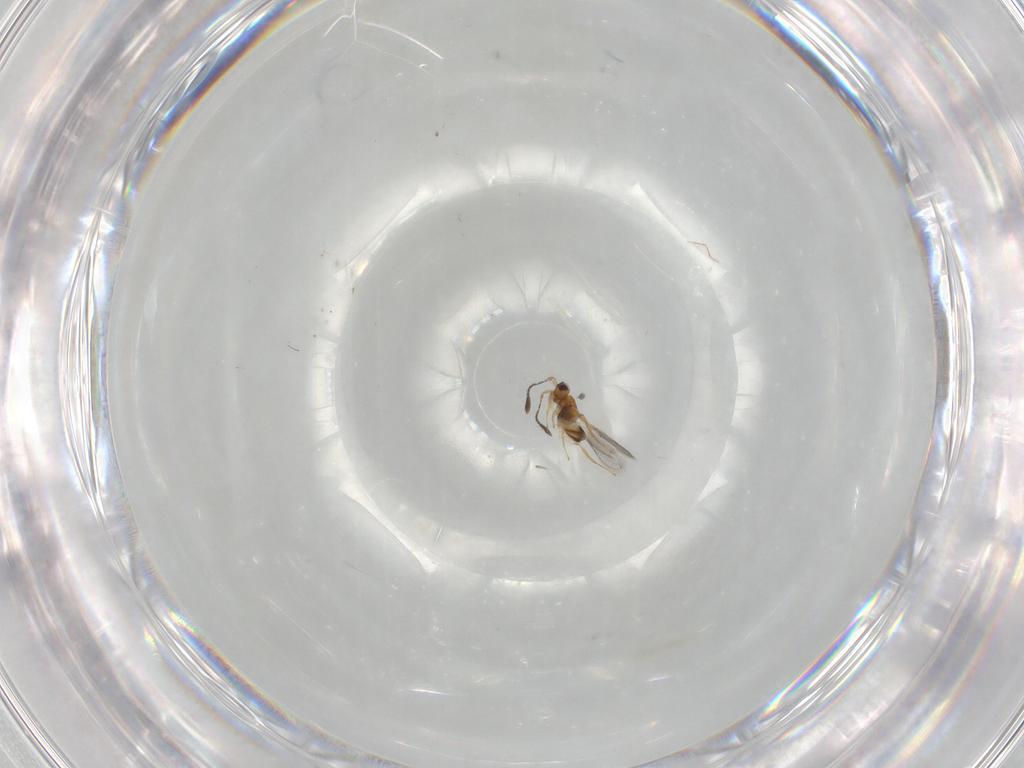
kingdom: Animalia
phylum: Arthropoda
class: Insecta
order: Hymenoptera
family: Mymaridae
